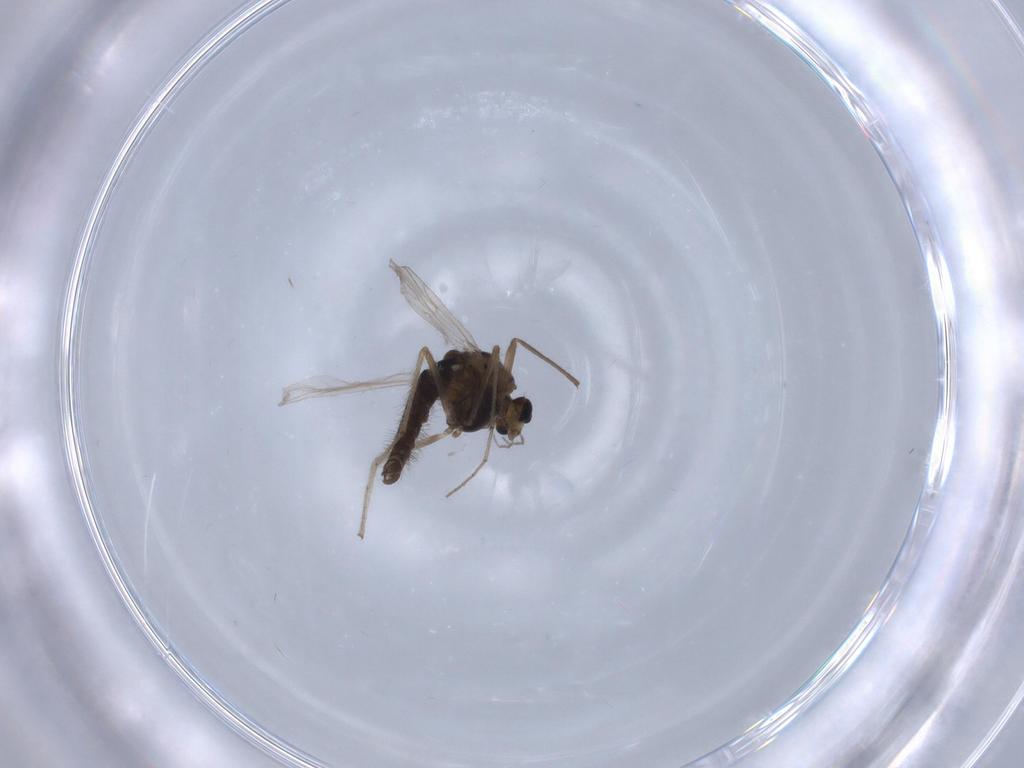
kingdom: Animalia
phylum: Arthropoda
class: Insecta
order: Diptera
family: Chironomidae
